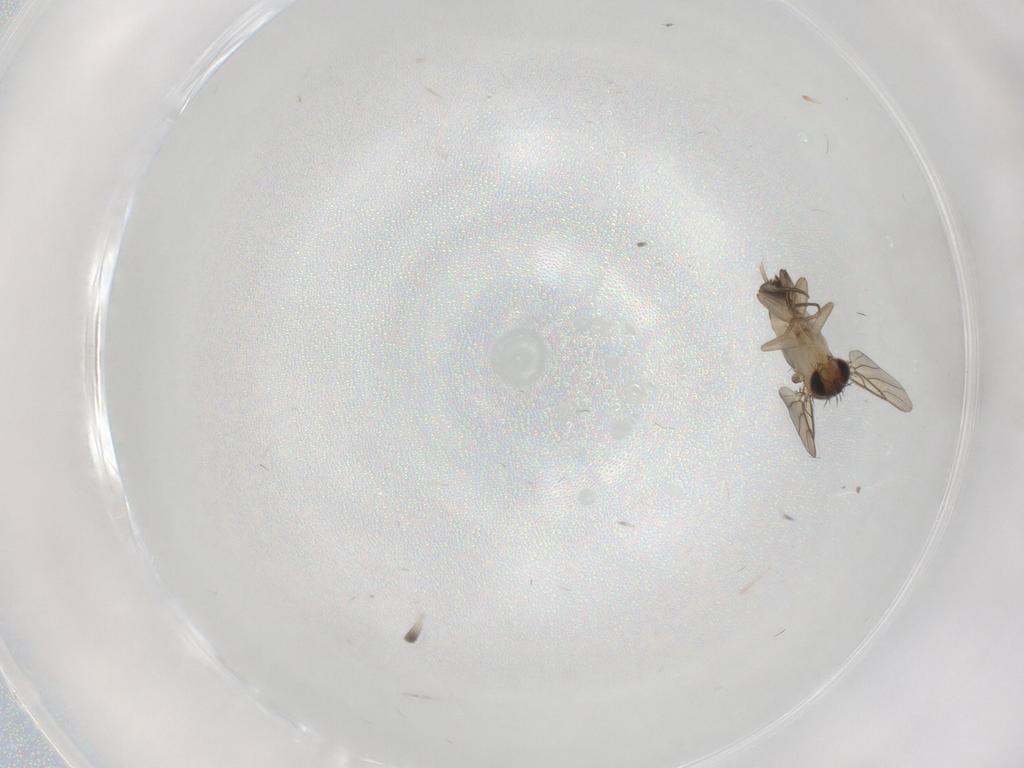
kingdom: Animalia
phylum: Arthropoda
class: Insecta
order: Diptera
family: Phoridae
